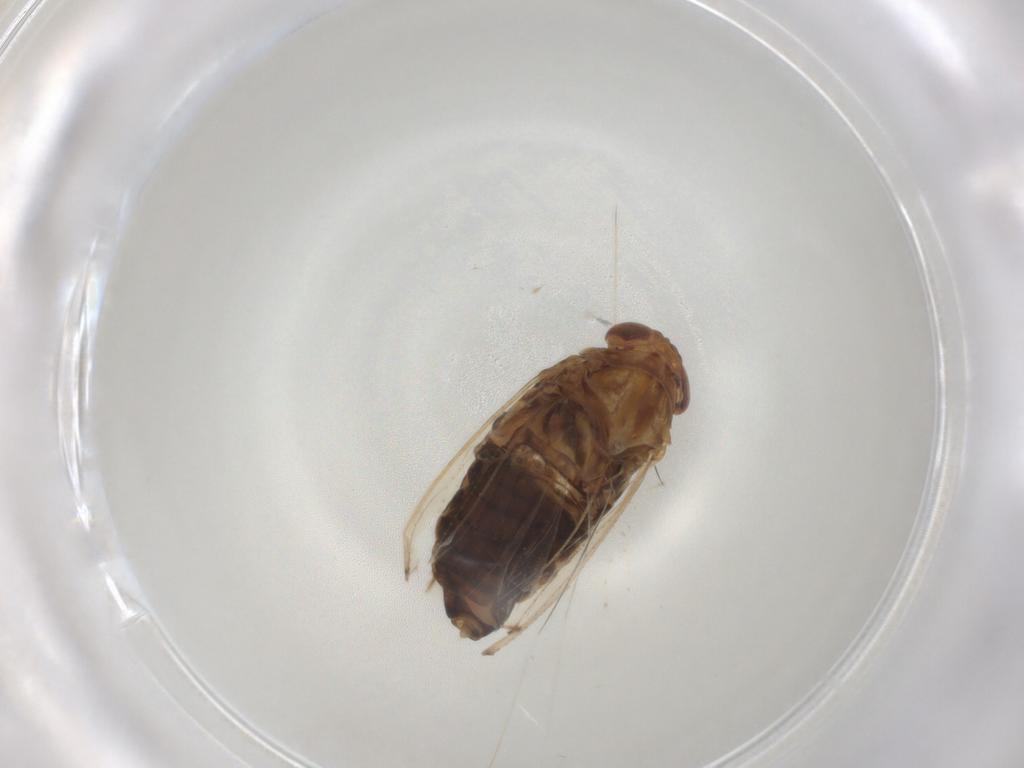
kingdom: Animalia
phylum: Arthropoda
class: Insecta
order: Hemiptera
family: Delphacidae
